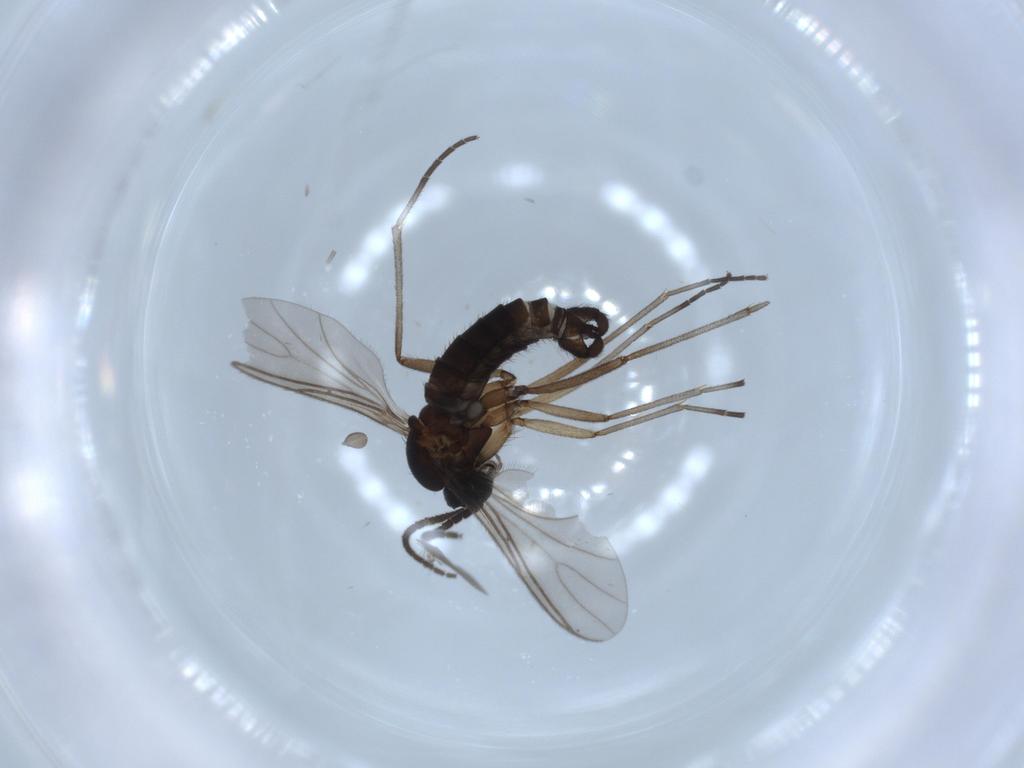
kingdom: Animalia
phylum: Arthropoda
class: Insecta
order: Diptera
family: Sciaridae
